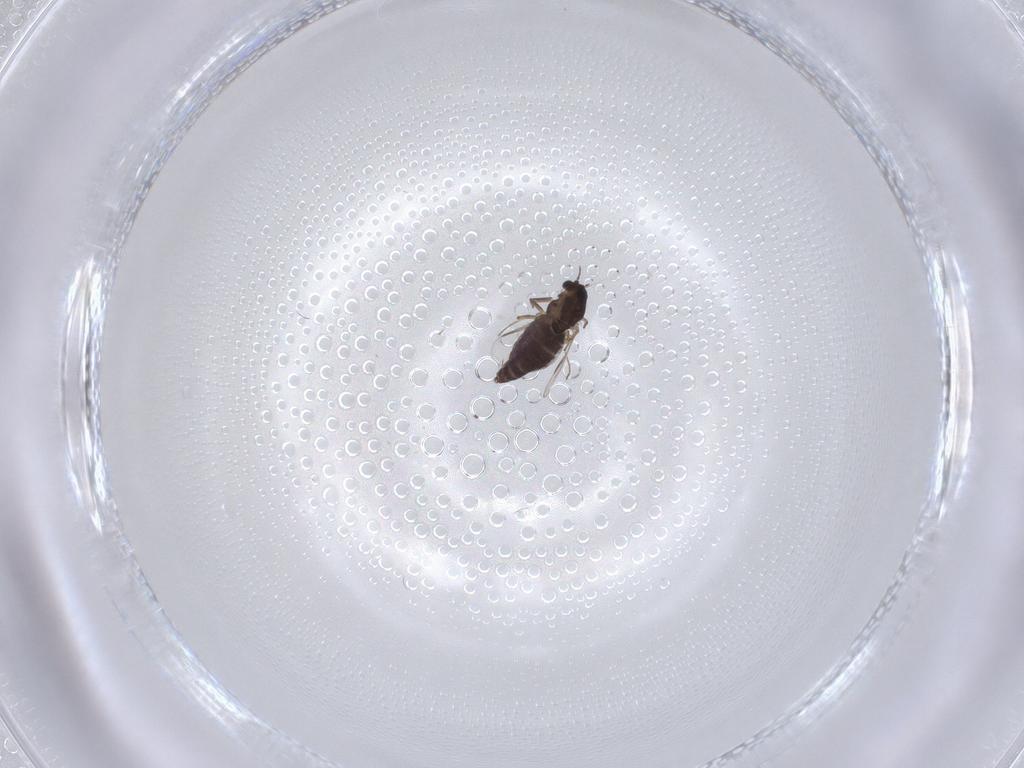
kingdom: Animalia
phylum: Arthropoda
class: Insecta
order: Diptera
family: Chironomidae
